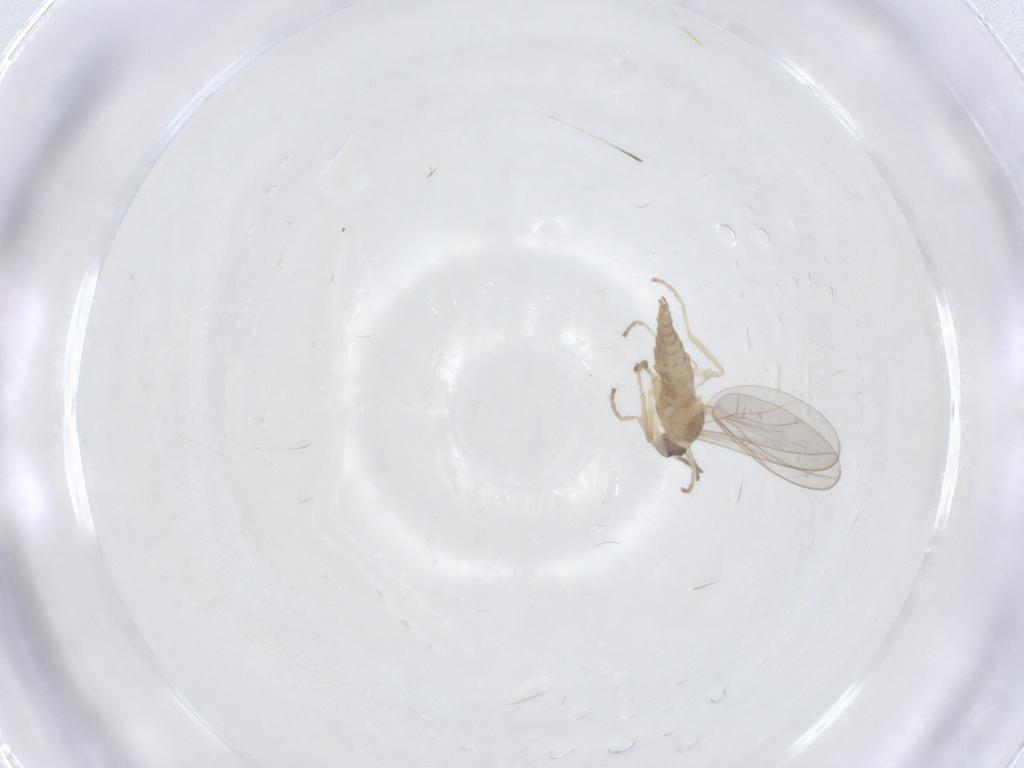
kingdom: Animalia
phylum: Arthropoda
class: Insecta
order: Diptera
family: Cecidomyiidae
